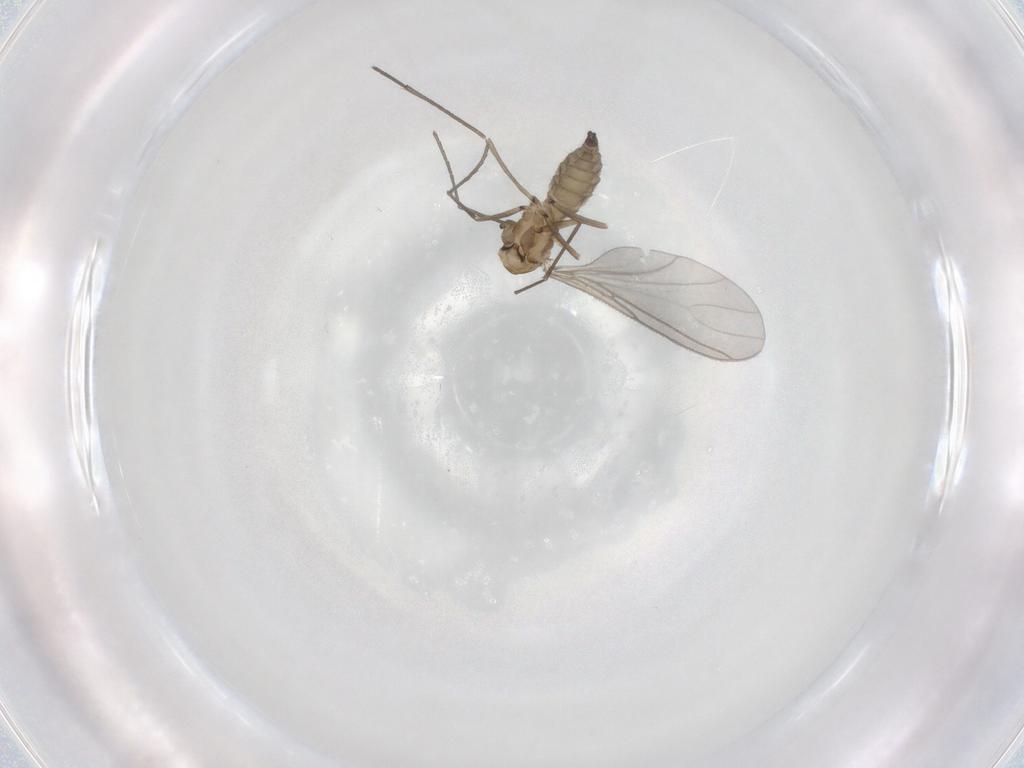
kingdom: Animalia
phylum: Arthropoda
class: Insecta
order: Diptera
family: Sciaridae
